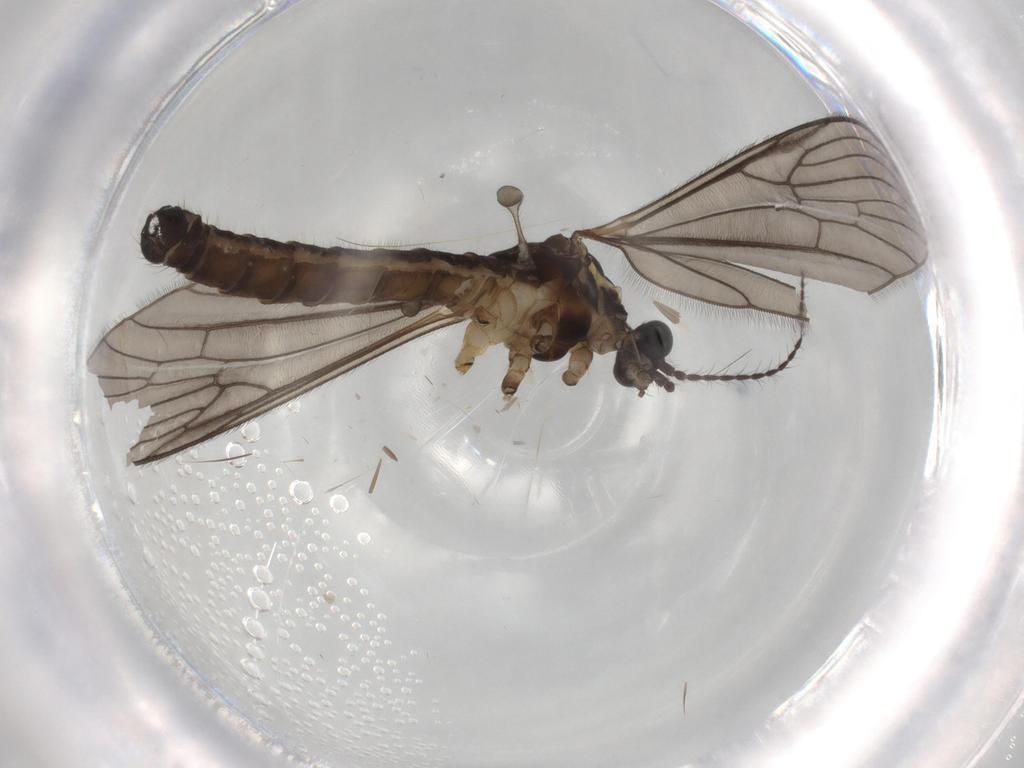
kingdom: Animalia
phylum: Arthropoda
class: Insecta
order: Diptera
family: Limoniidae
